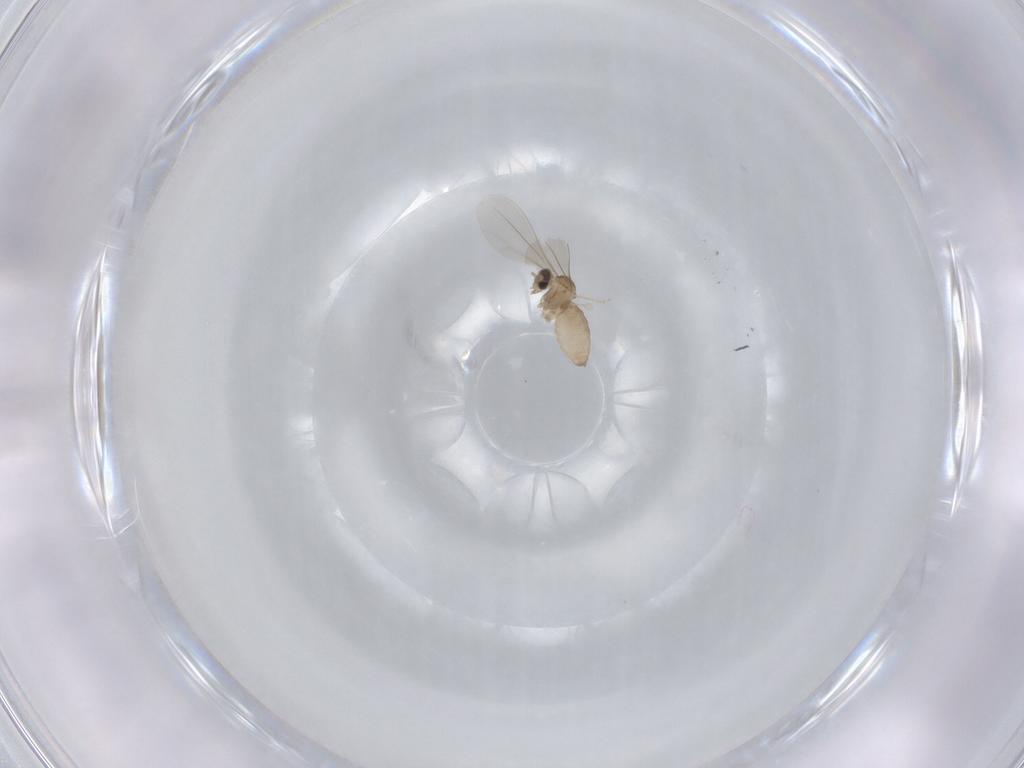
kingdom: Animalia
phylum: Arthropoda
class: Insecta
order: Diptera
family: Cecidomyiidae
